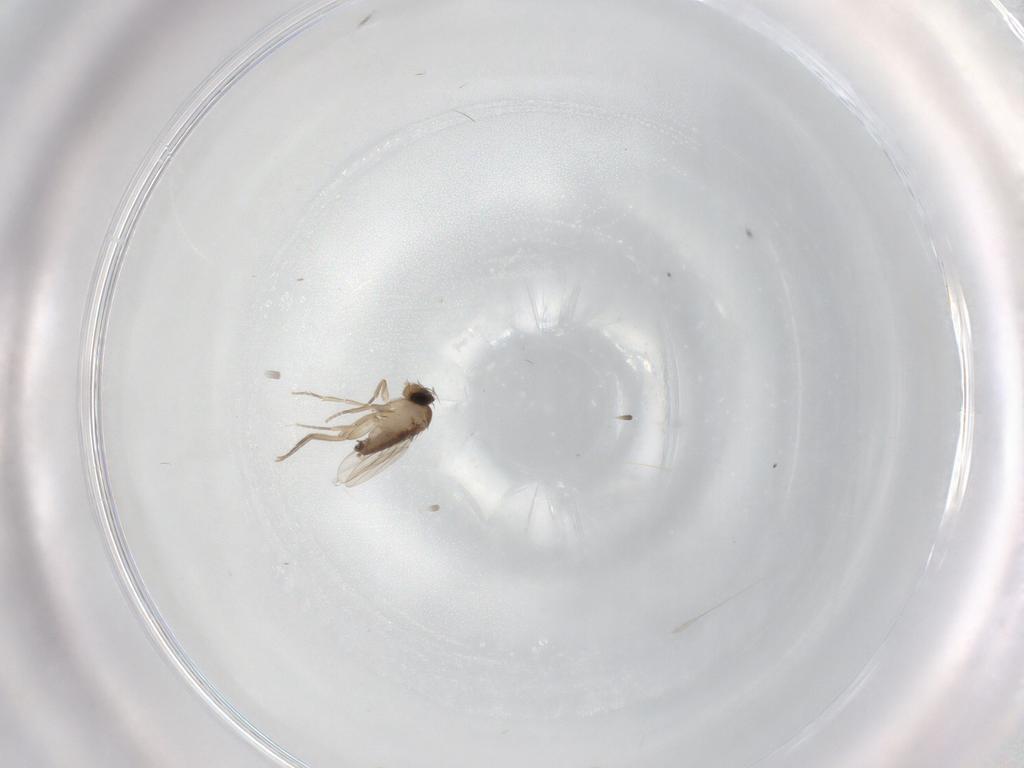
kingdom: Animalia
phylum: Arthropoda
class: Insecta
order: Diptera
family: Phoridae
